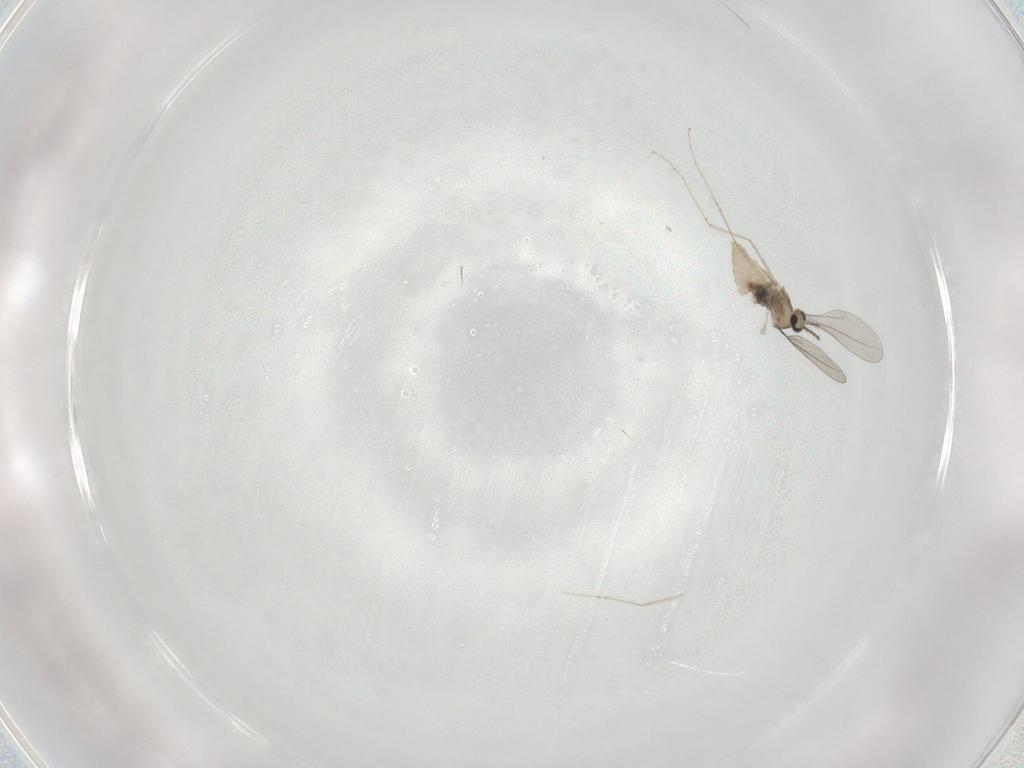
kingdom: Animalia
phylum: Arthropoda
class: Insecta
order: Diptera
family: Cecidomyiidae
